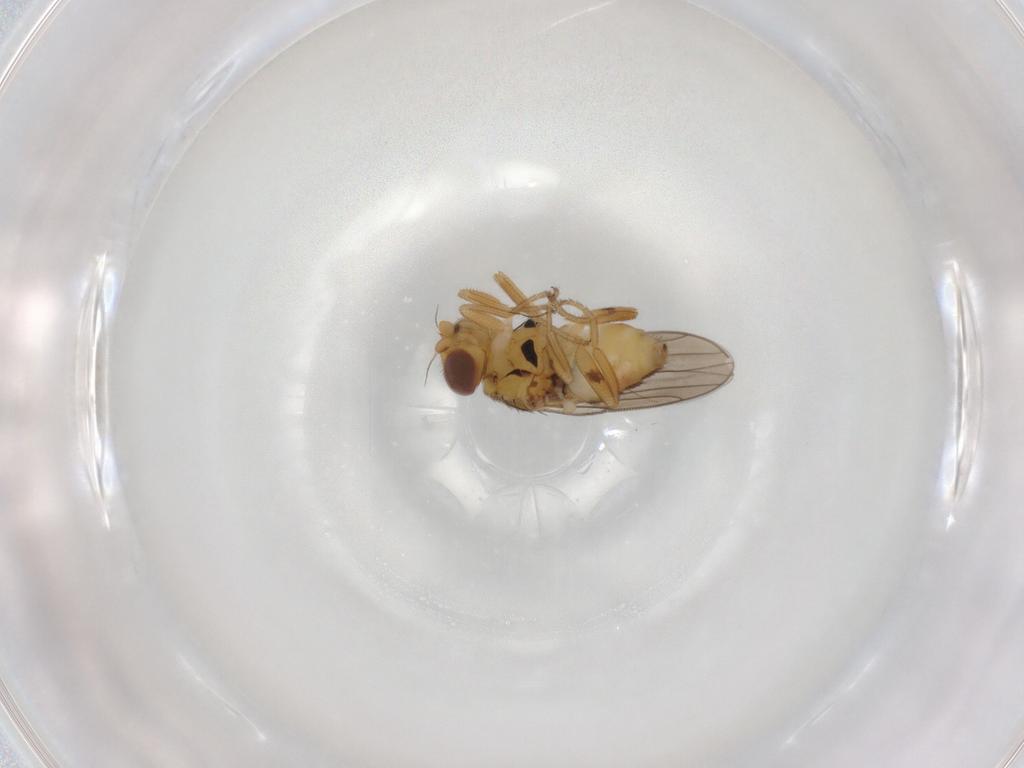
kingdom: Animalia
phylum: Arthropoda
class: Insecta
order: Diptera
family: Chloropidae
